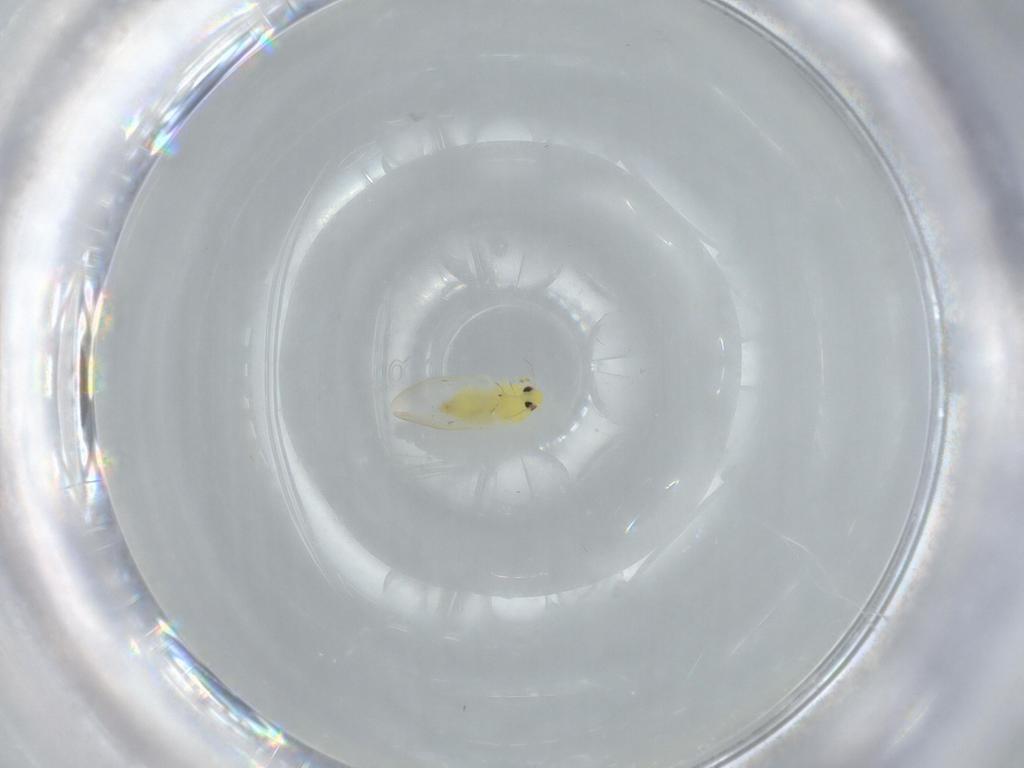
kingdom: Animalia
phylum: Arthropoda
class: Insecta
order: Hemiptera
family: Aleyrodidae
